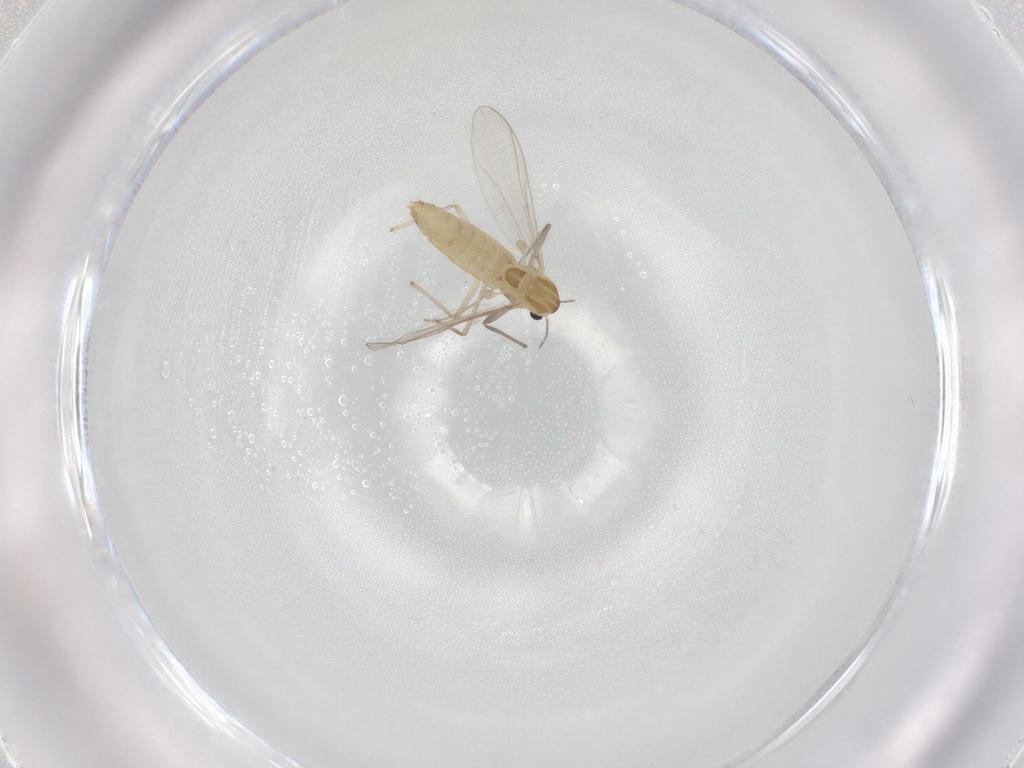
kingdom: Animalia
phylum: Arthropoda
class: Insecta
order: Diptera
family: Chironomidae
